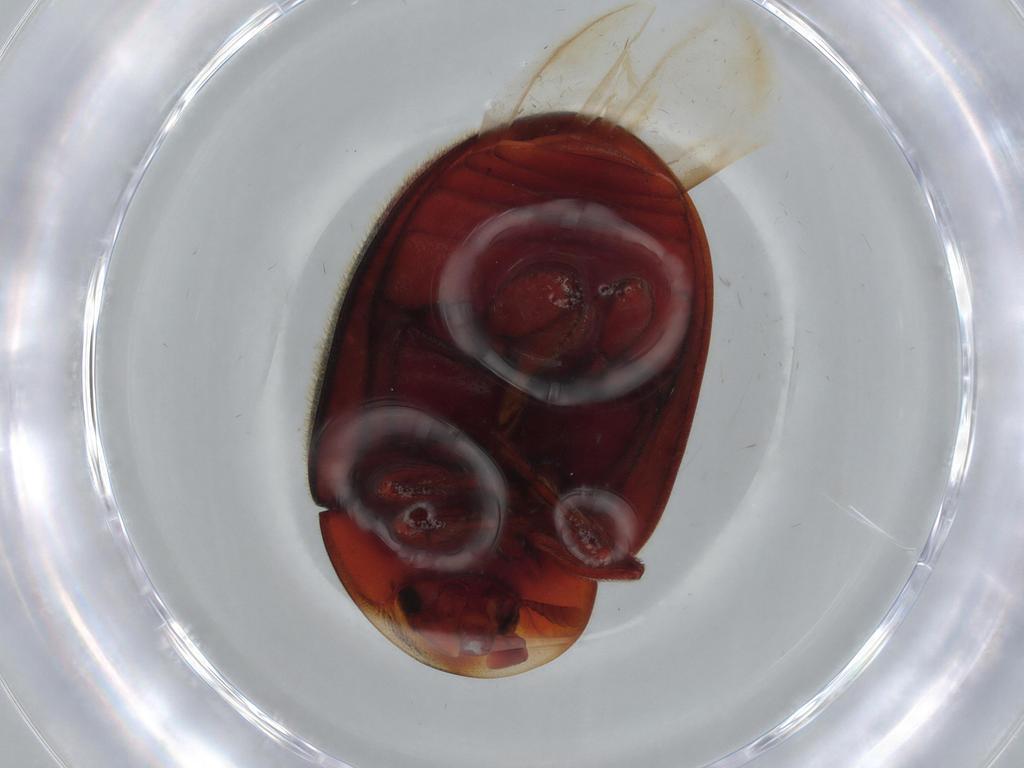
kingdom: Animalia
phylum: Arthropoda
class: Insecta
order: Coleoptera
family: Coccinellidae
